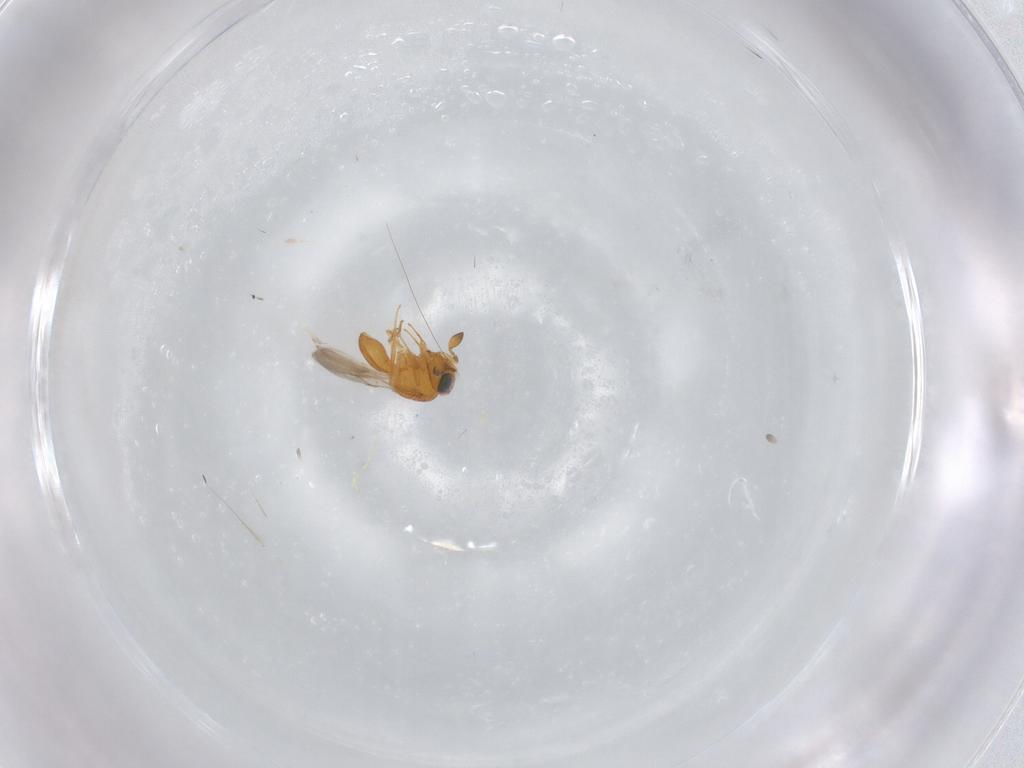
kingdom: Animalia
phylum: Arthropoda
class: Insecta
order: Hymenoptera
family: Scelionidae
